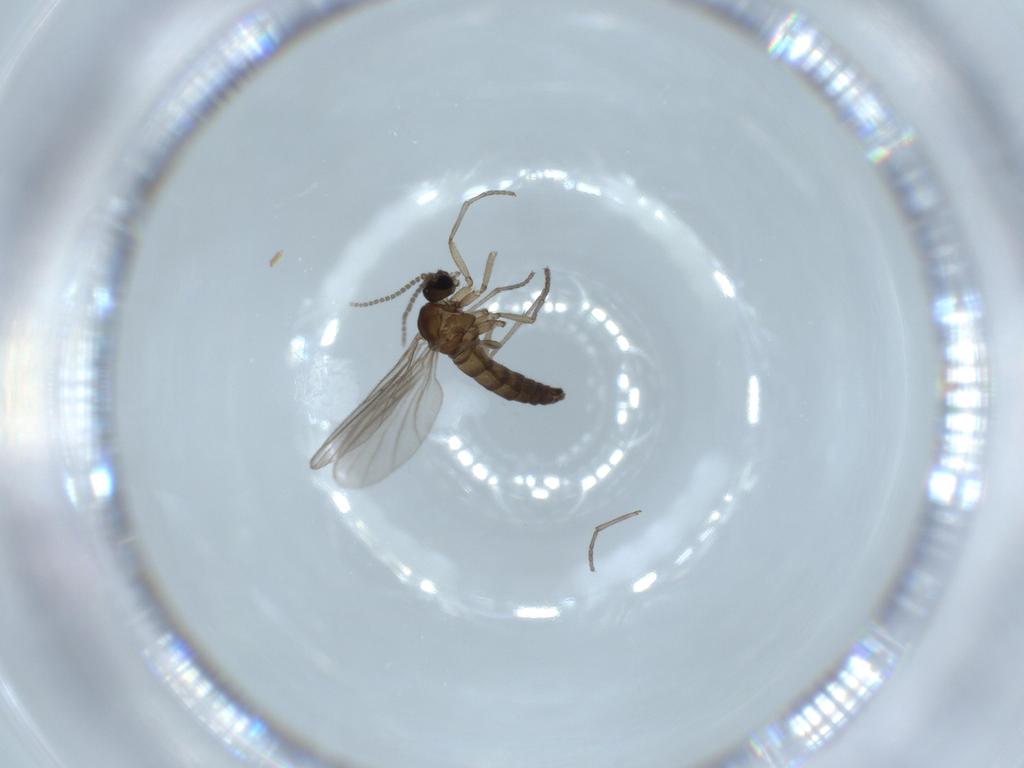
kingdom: Animalia
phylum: Arthropoda
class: Insecta
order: Diptera
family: Sciaridae
